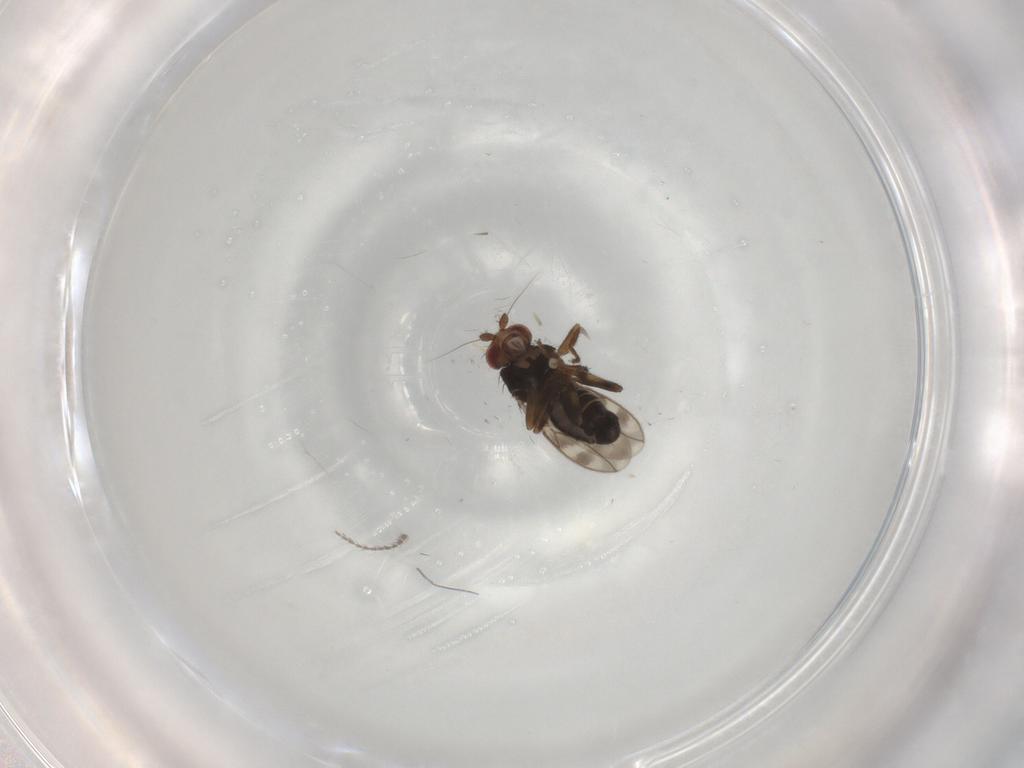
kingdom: Animalia
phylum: Arthropoda
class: Insecta
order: Diptera
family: Sphaeroceridae
